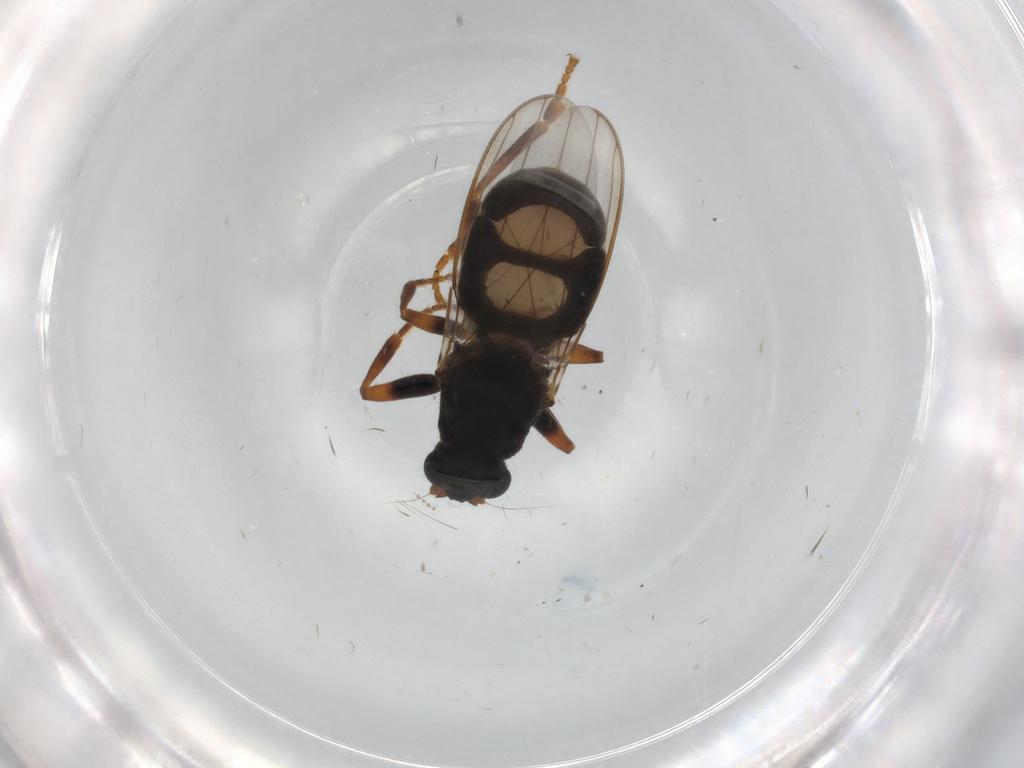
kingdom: Animalia
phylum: Arthropoda
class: Insecta
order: Diptera
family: Sphaeroceridae
